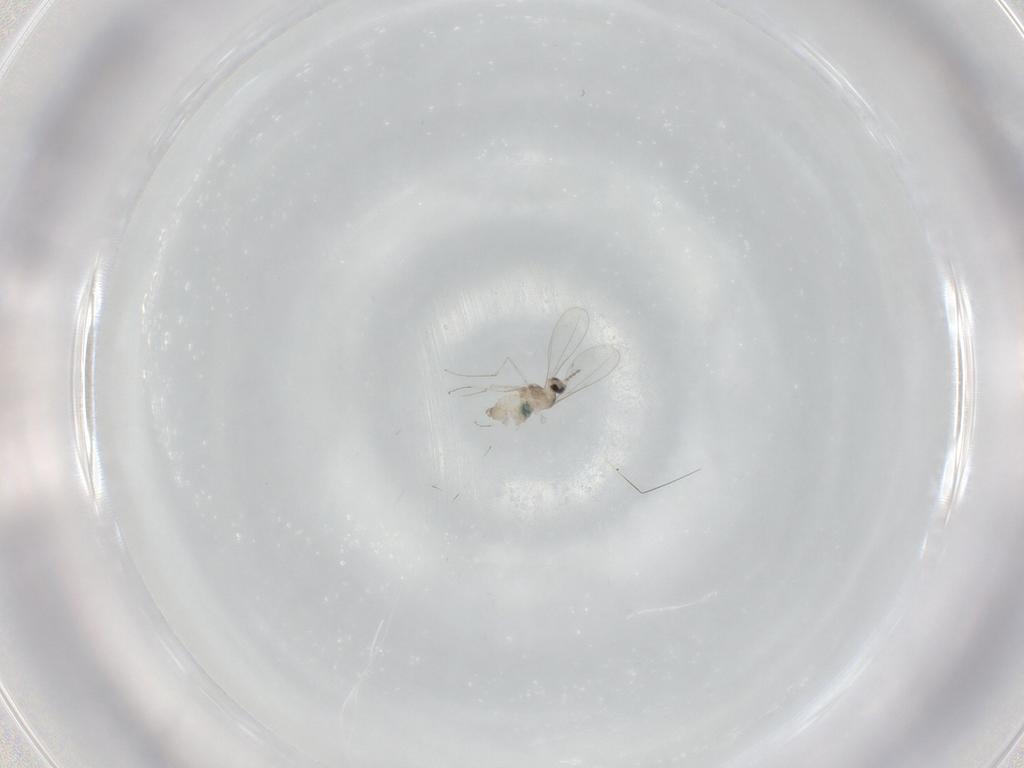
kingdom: Animalia
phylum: Arthropoda
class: Insecta
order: Diptera
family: Cecidomyiidae
